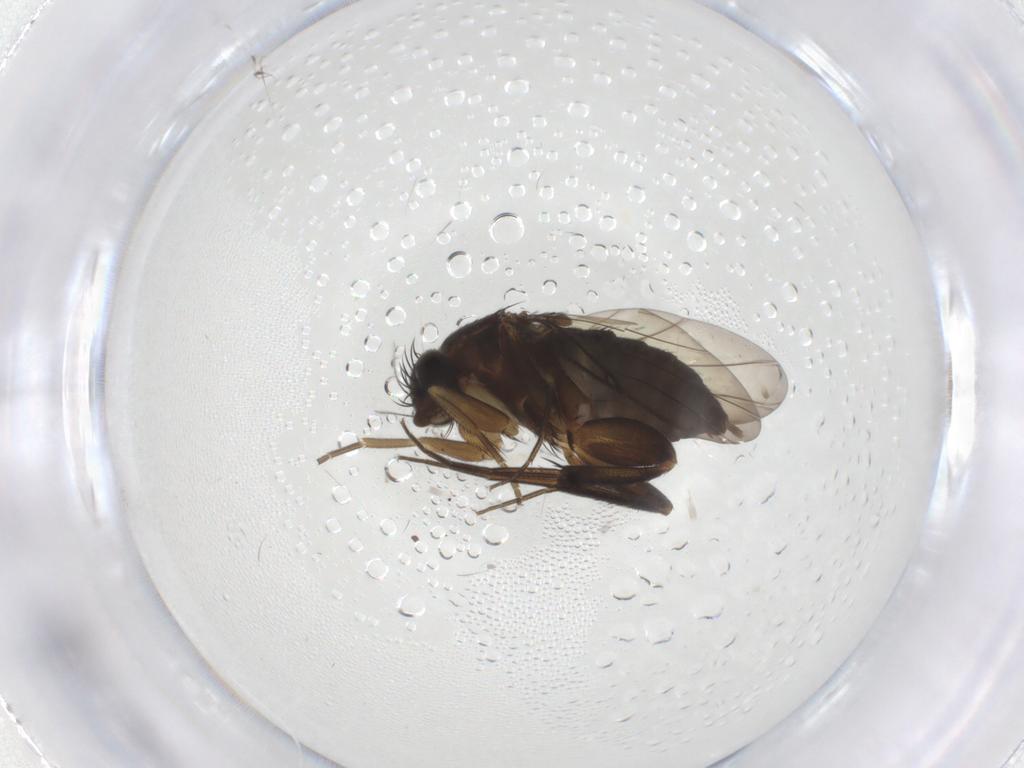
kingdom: Animalia
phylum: Arthropoda
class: Insecta
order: Diptera
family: Phoridae
